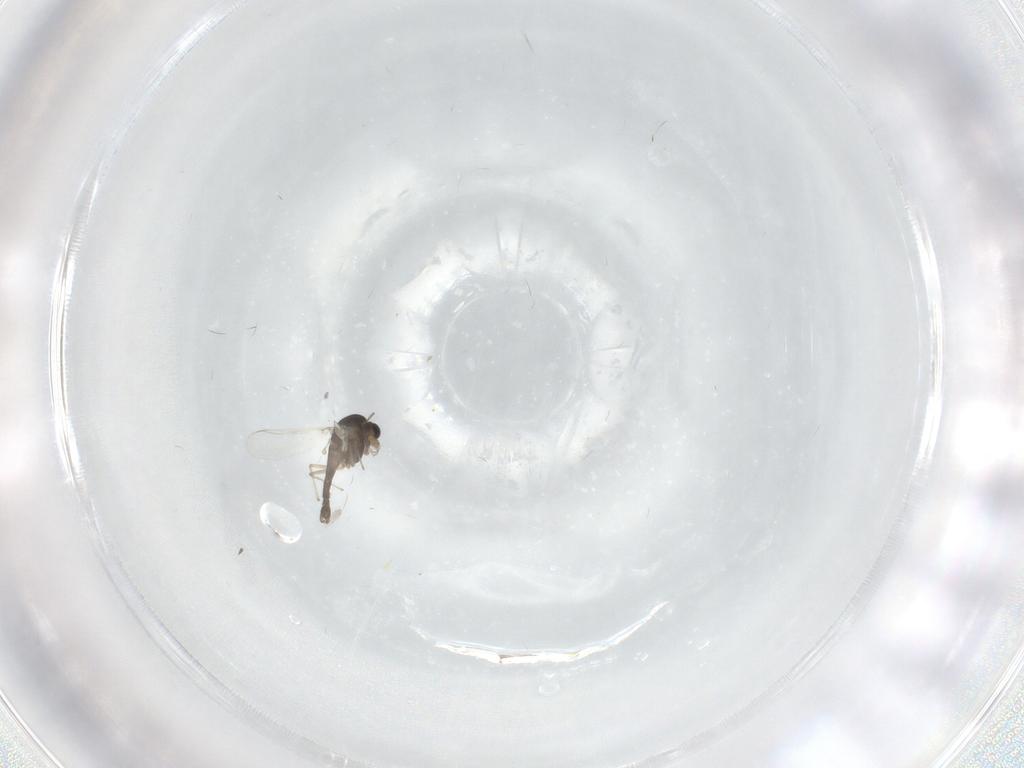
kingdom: Animalia
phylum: Arthropoda
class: Insecta
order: Diptera
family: Chironomidae
